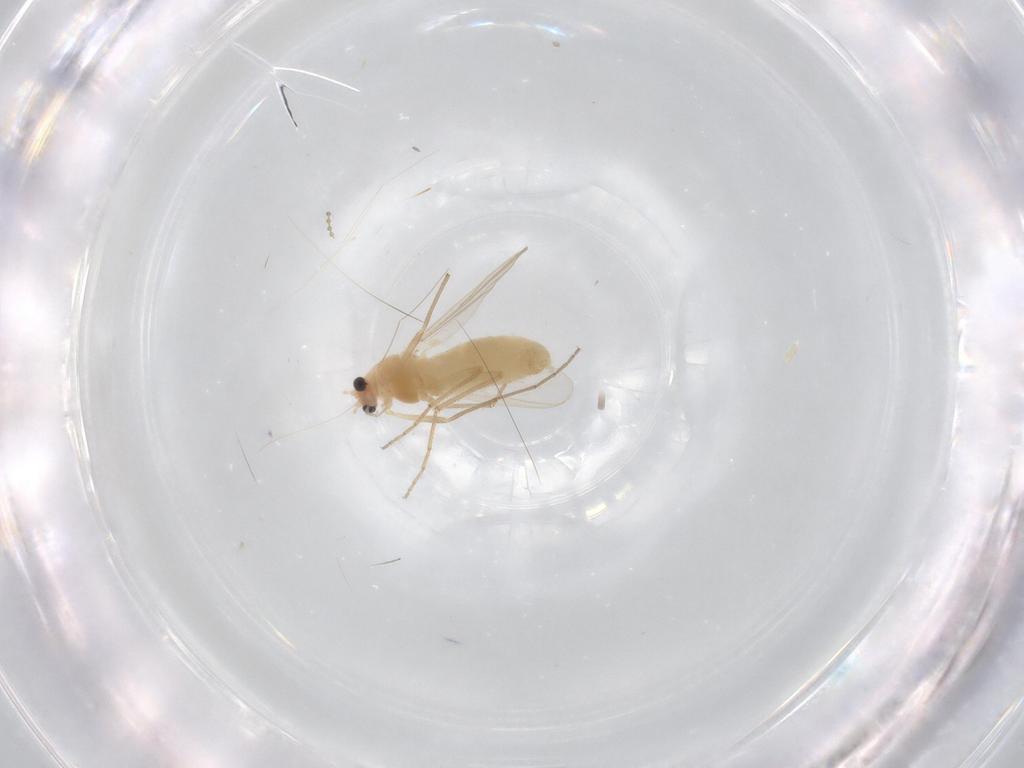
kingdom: Animalia
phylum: Arthropoda
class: Insecta
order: Diptera
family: Chironomidae
